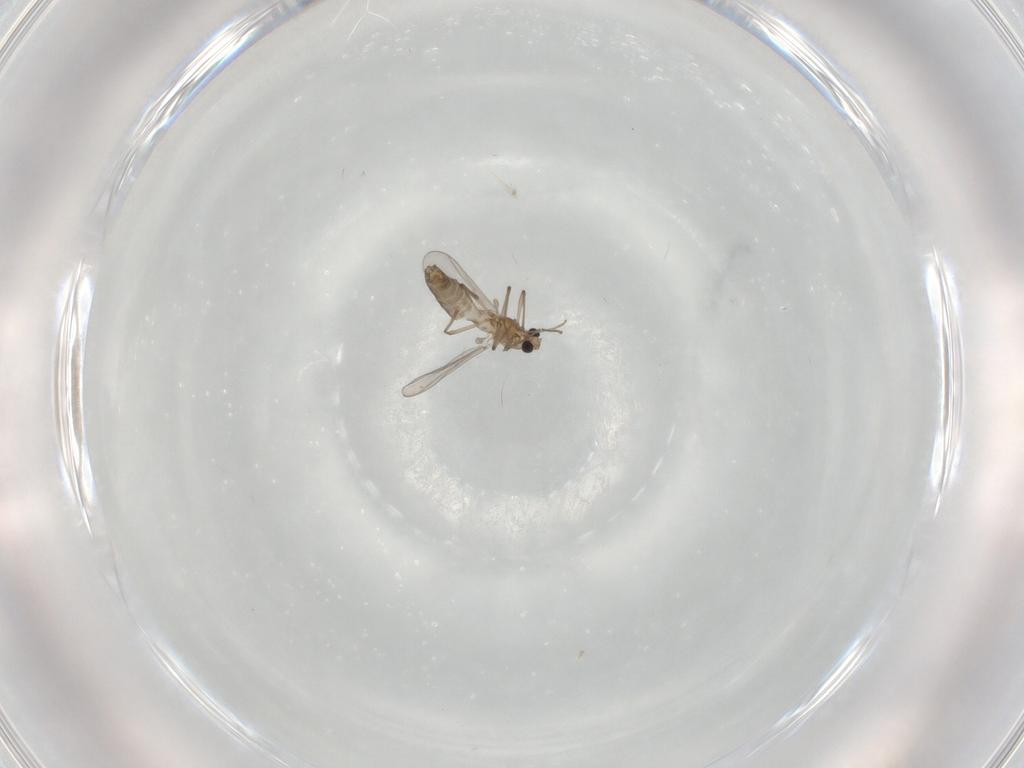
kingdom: Animalia
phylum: Arthropoda
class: Insecta
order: Diptera
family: Chironomidae
